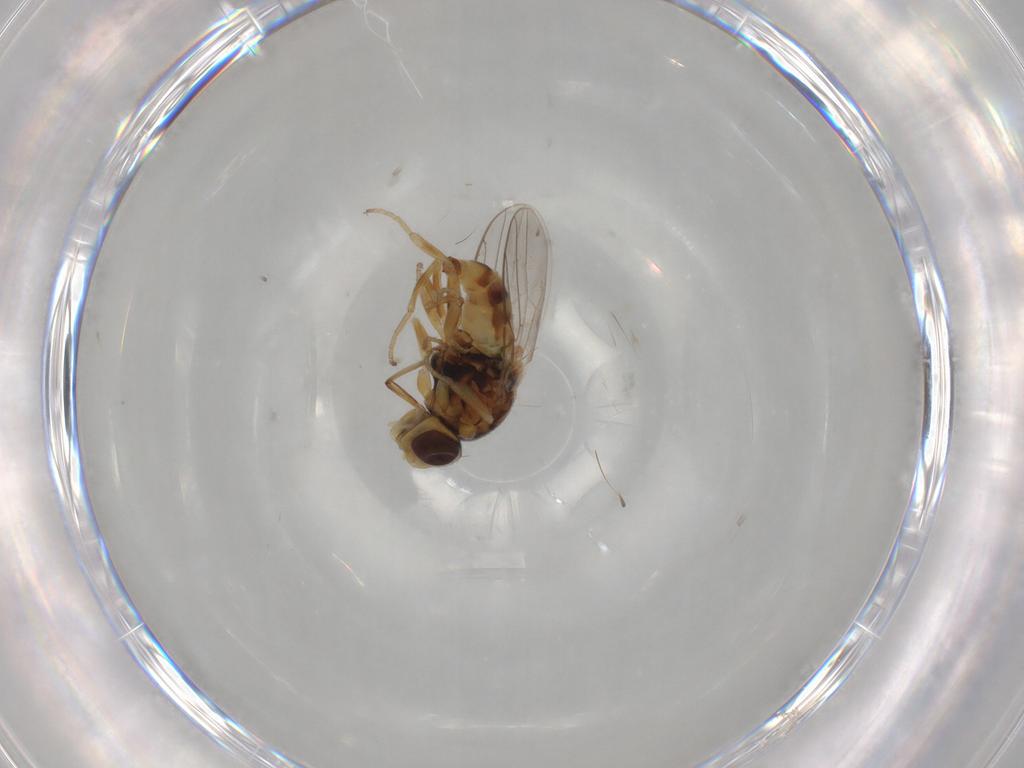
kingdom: Animalia
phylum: Arthropoda
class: Insecta
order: Diptera
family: Chloropidae
